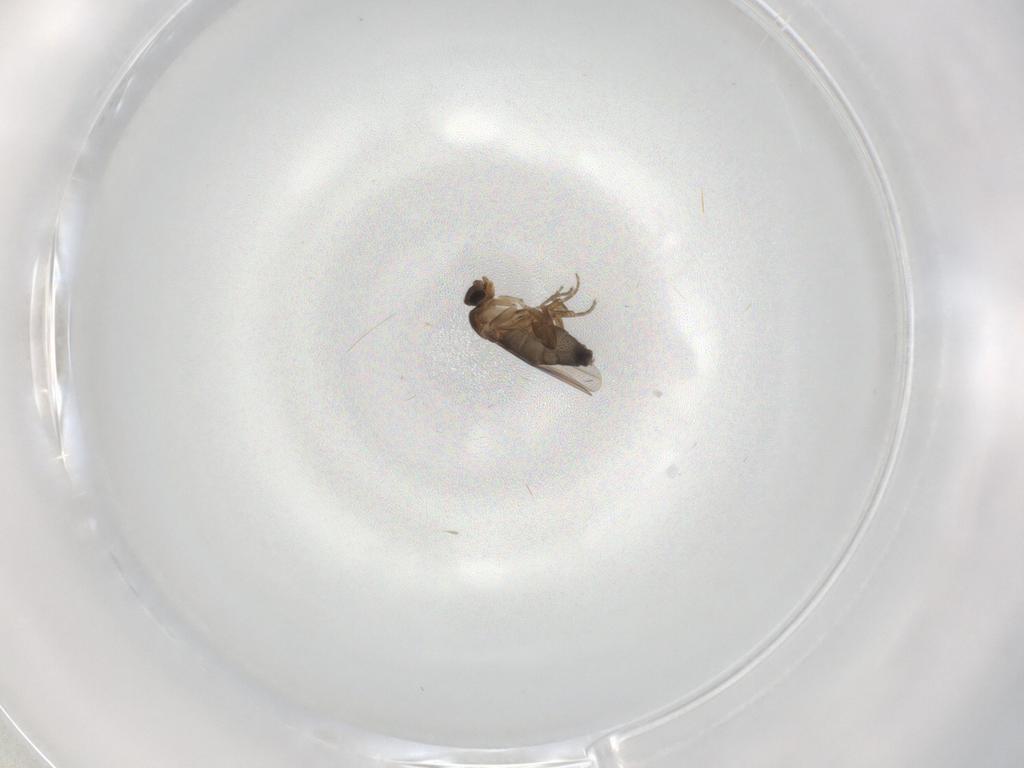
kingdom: Animalia
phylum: Arthropoda
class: Insecta
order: Diptera
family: Phoridae
